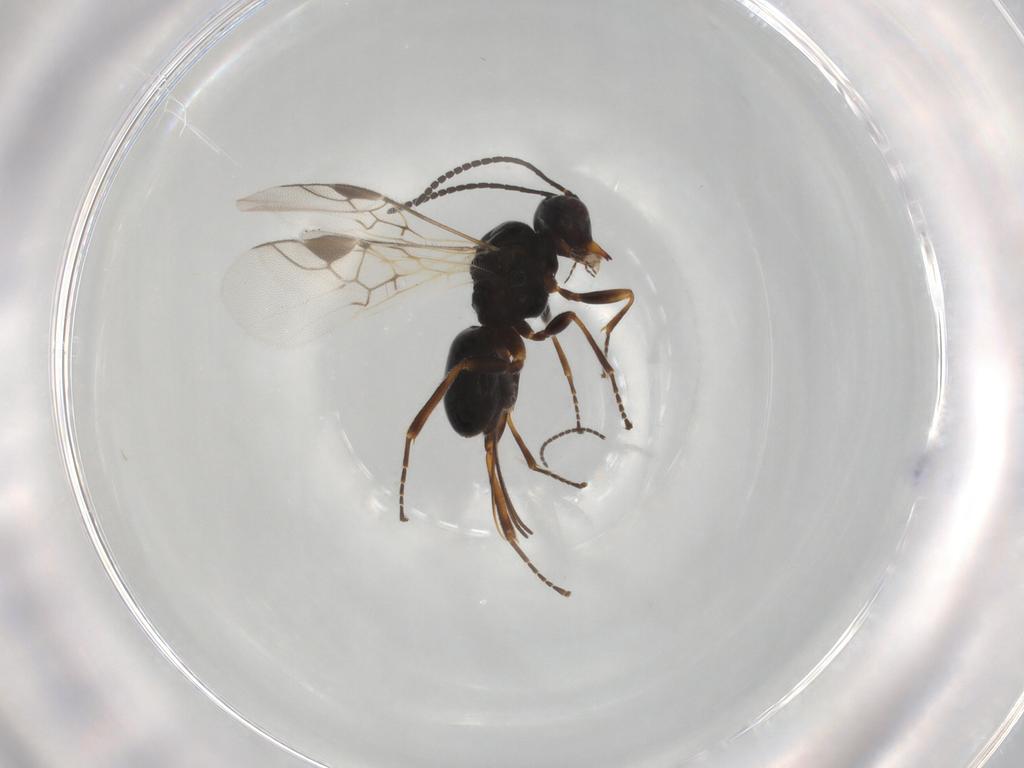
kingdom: Animalia
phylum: Arthropoda
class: Insecta
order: Hymenoptera
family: Braconidae
